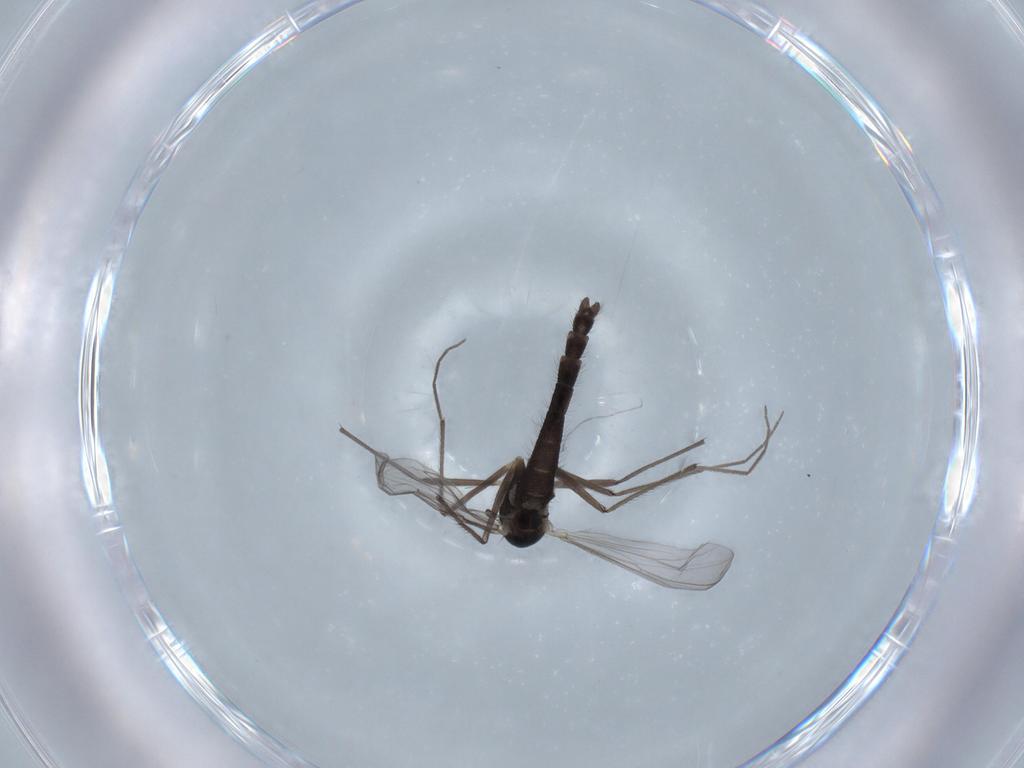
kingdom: Animalia
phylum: Arthropoda
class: Insecta
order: Diptera
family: Chironomidae
